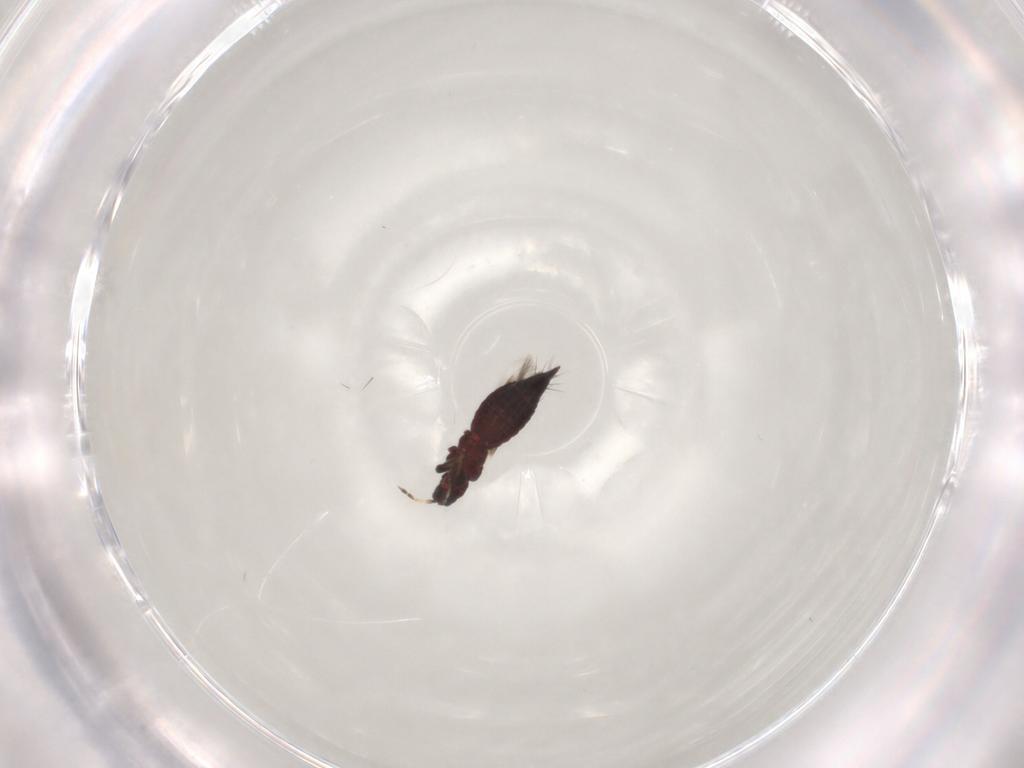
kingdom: Animalia
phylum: Arthropoda
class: Insecta
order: Thysanoptera
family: Aeolothripidae
